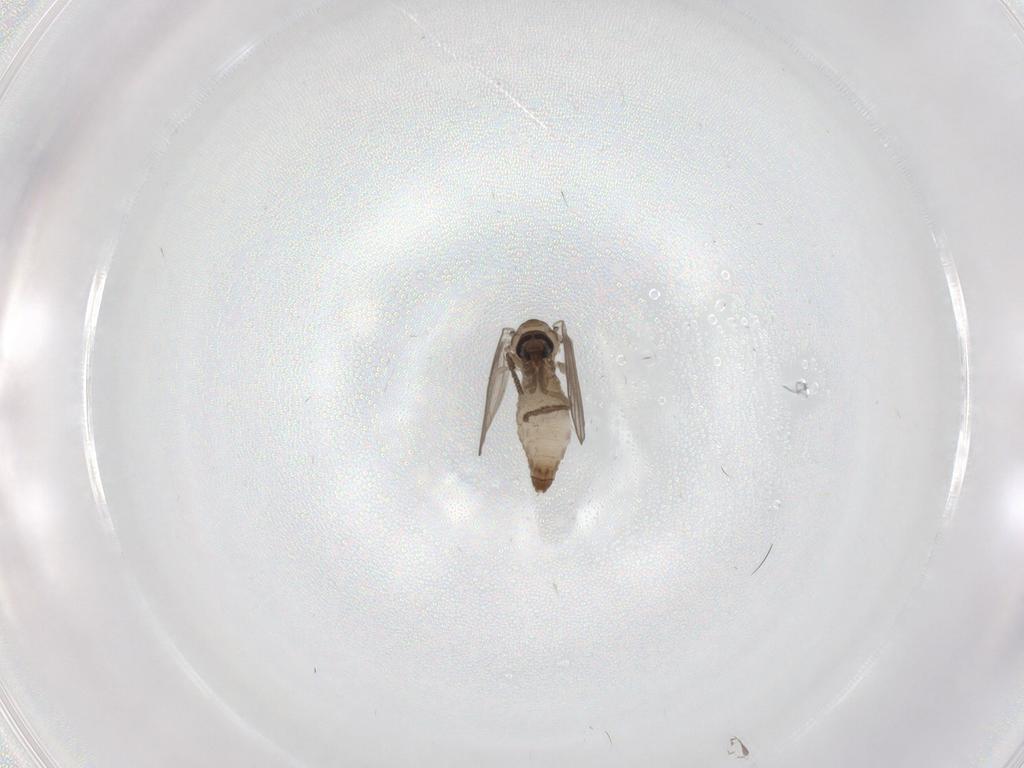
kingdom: Animalia
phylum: Arthropoda
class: Insecta
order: Diptera
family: Psychodidae
